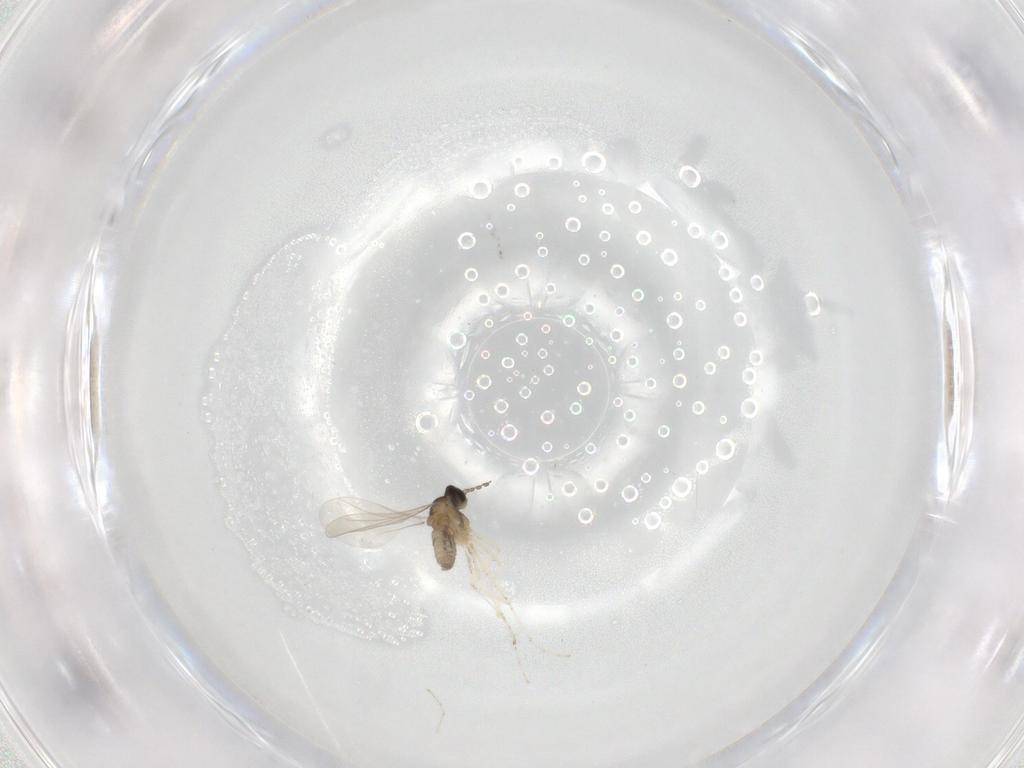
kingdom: Animalia
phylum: Arthropoda
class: Insecta
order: Diptera
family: Cecidomyiidae
